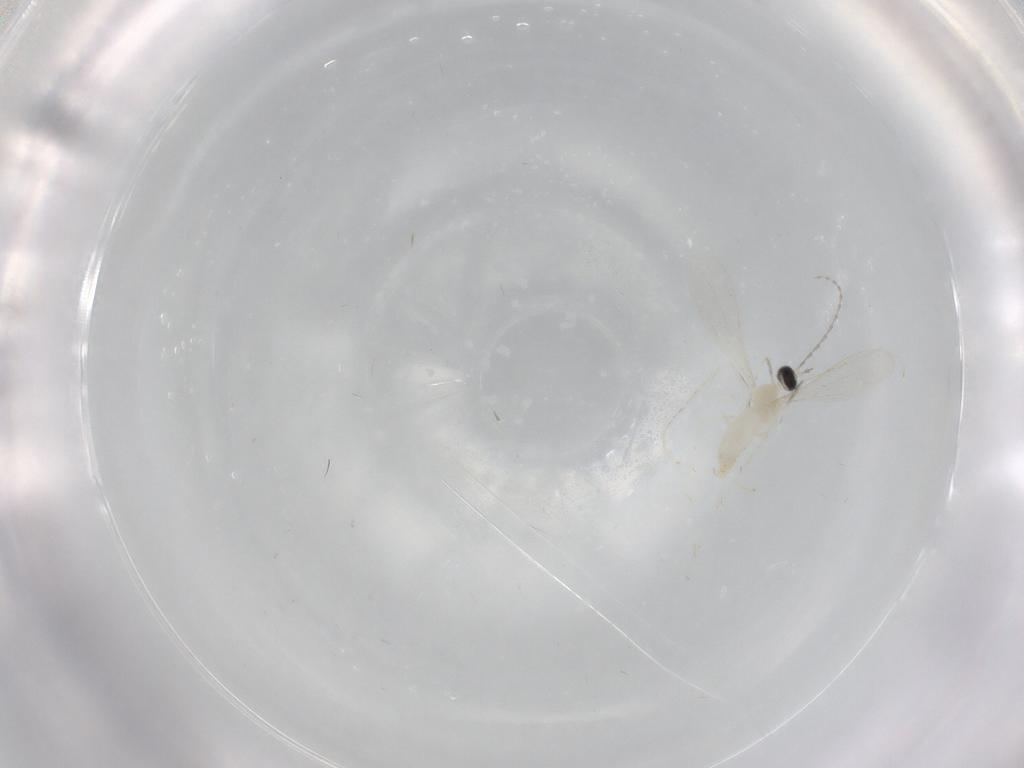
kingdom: Animalia
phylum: Arthropoda
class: Insecta
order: Diptera
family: Cecidomyiidae
